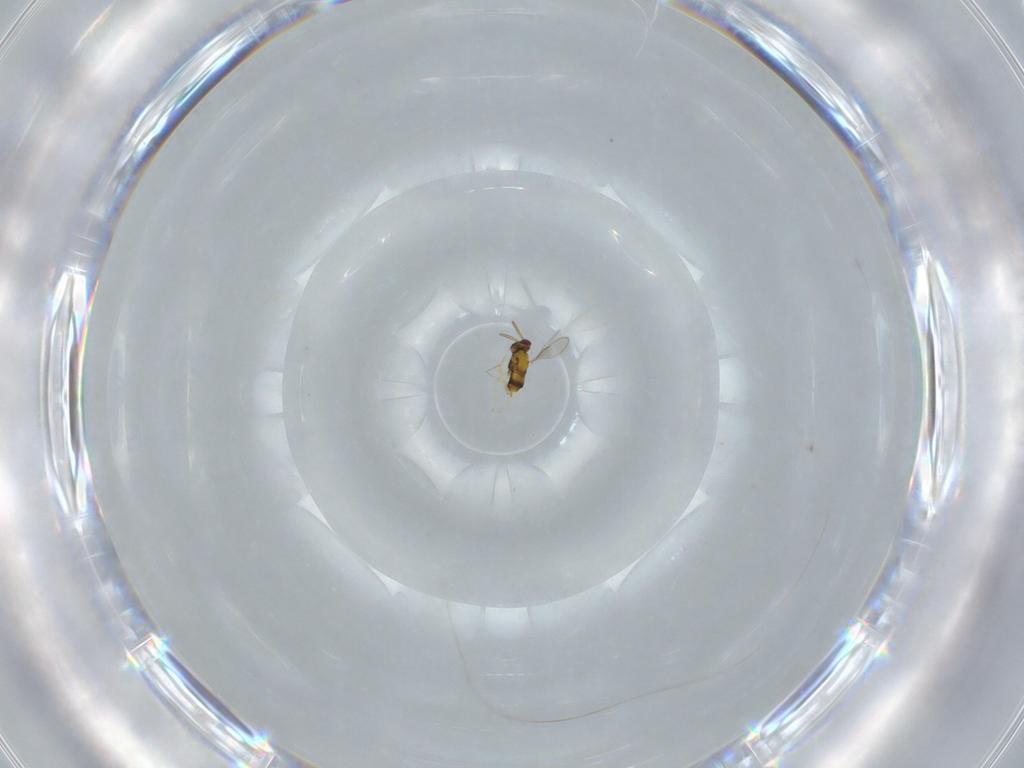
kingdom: Animalia
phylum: Arthropoda
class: Insecta
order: Hymenoptera
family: Aphelinidae
